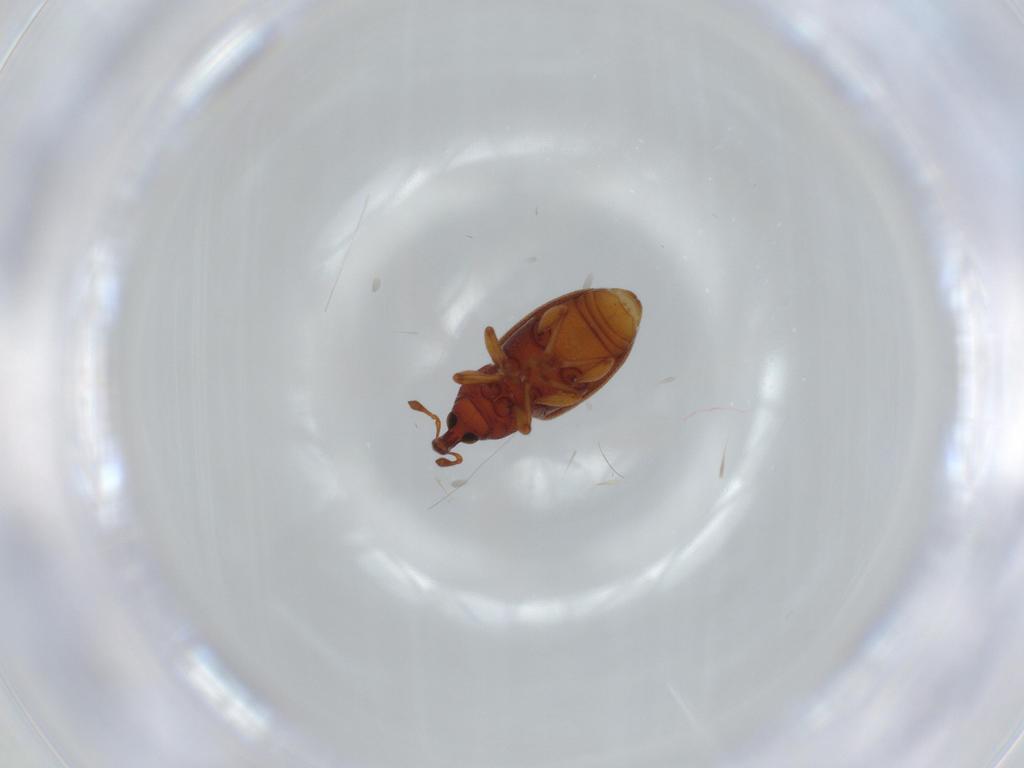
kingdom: Animalia
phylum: Arthropoda
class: Insecta
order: Coleoptera
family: Curculionidae
